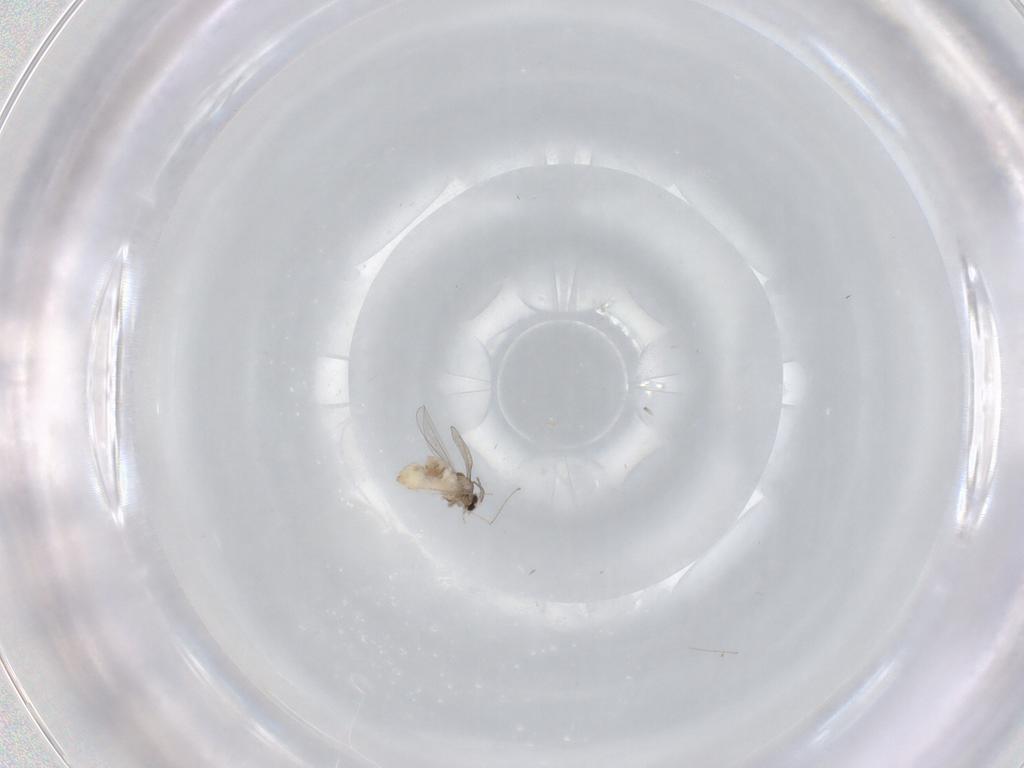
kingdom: Animalia
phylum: Arthropoda
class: Insecta
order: Diptera
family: Cecidomyiidae
